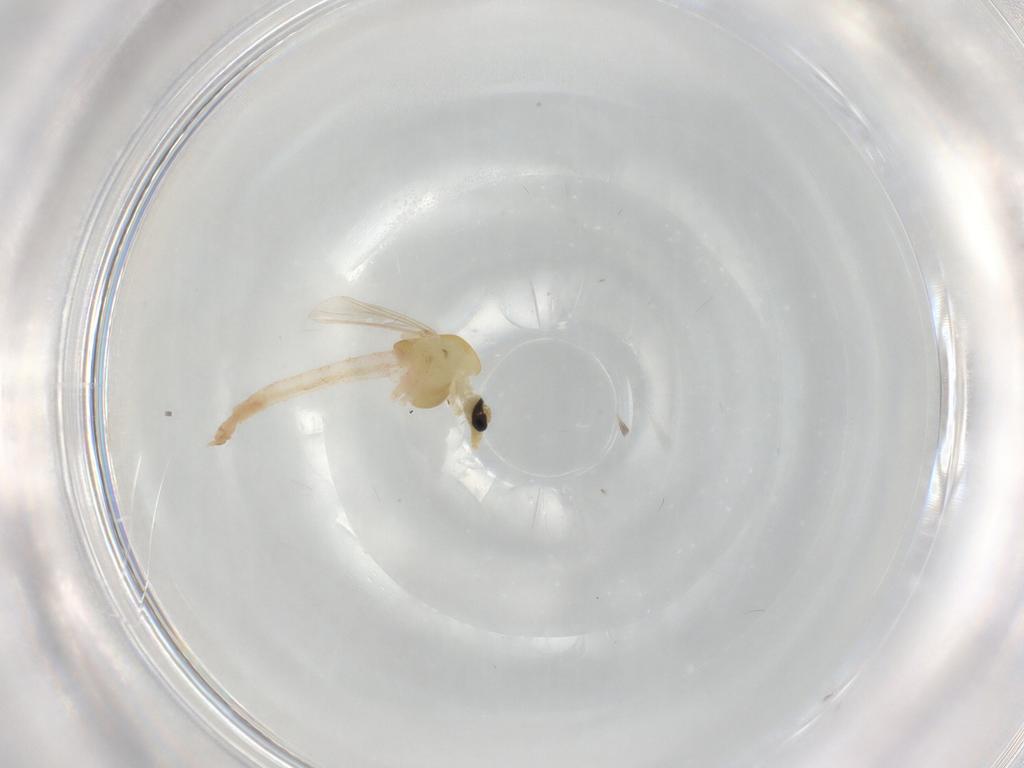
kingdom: Animalia
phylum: Arthropoda
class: Insecta
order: Diptera
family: Chironomidae
